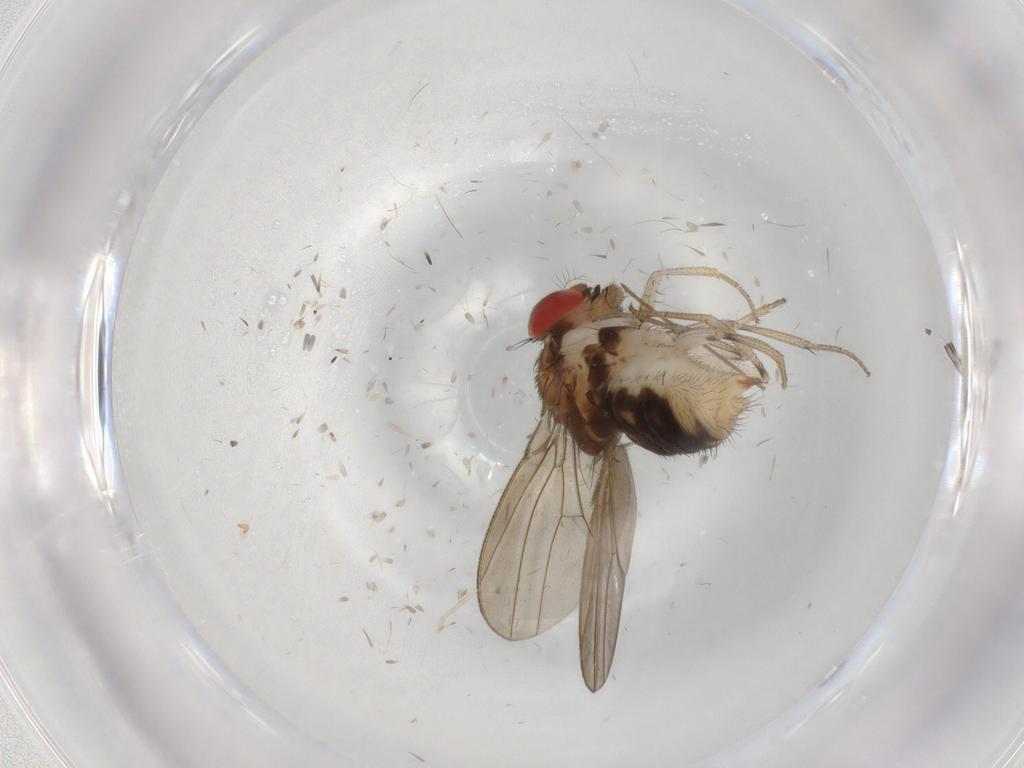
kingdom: Animalia
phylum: Arthropoda
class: Insecta
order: Diptera
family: Drosophilidae
